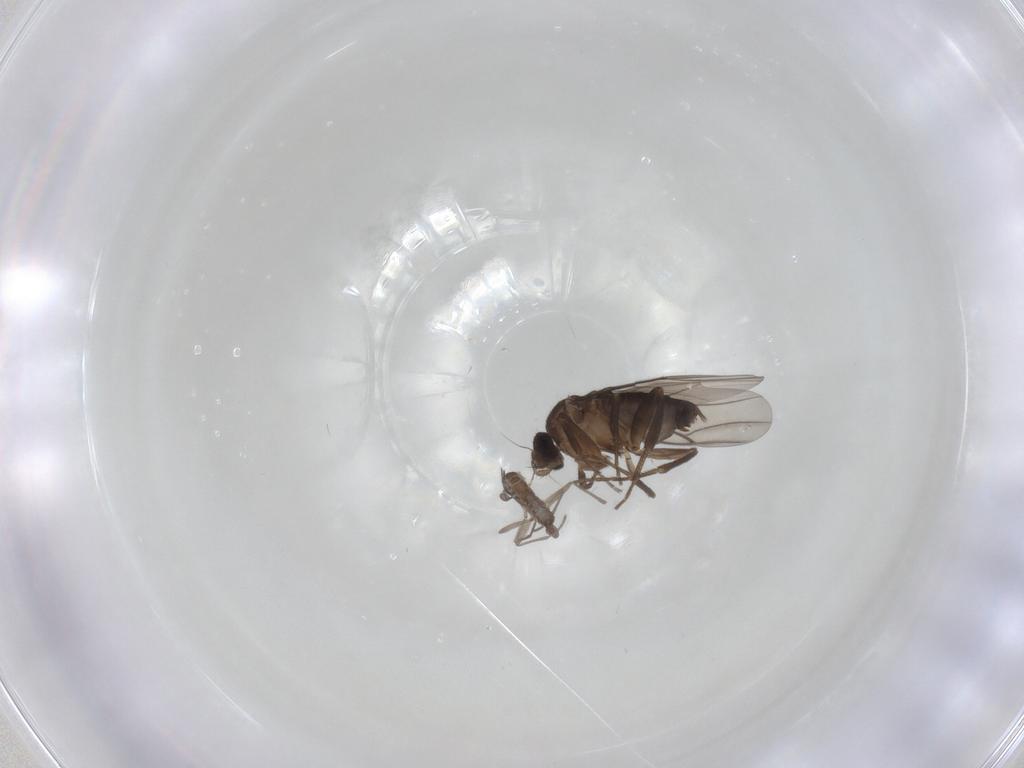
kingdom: Animalia
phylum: Arthropoda
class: Insecta
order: Diptera
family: Phoridae
